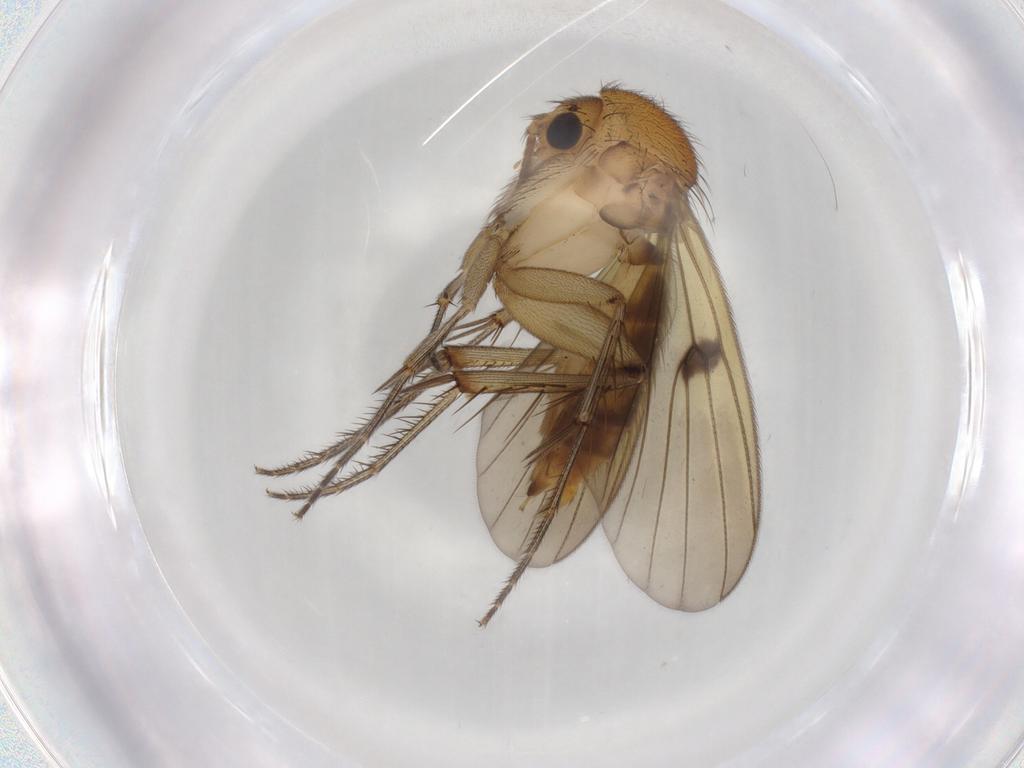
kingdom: Animalia
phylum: Arthropoda
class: Insecta
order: Diptera
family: Mycetophilidae
